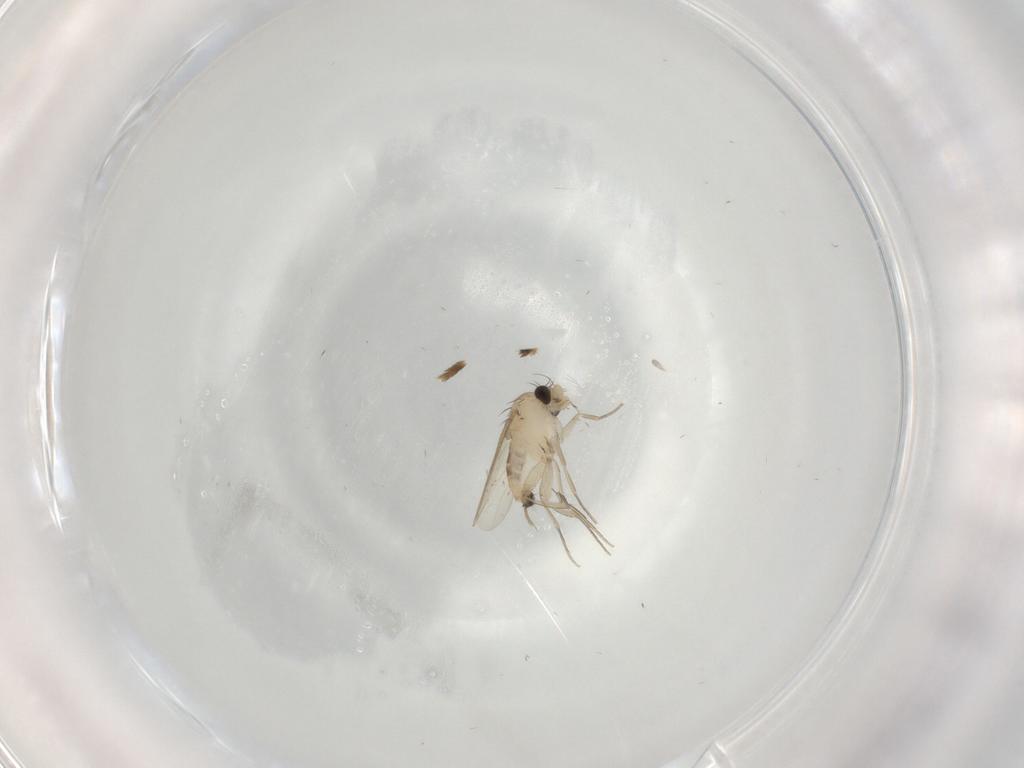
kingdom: Animalia
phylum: Arthropoda
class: Insecta
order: Diptera
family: Phoridae
